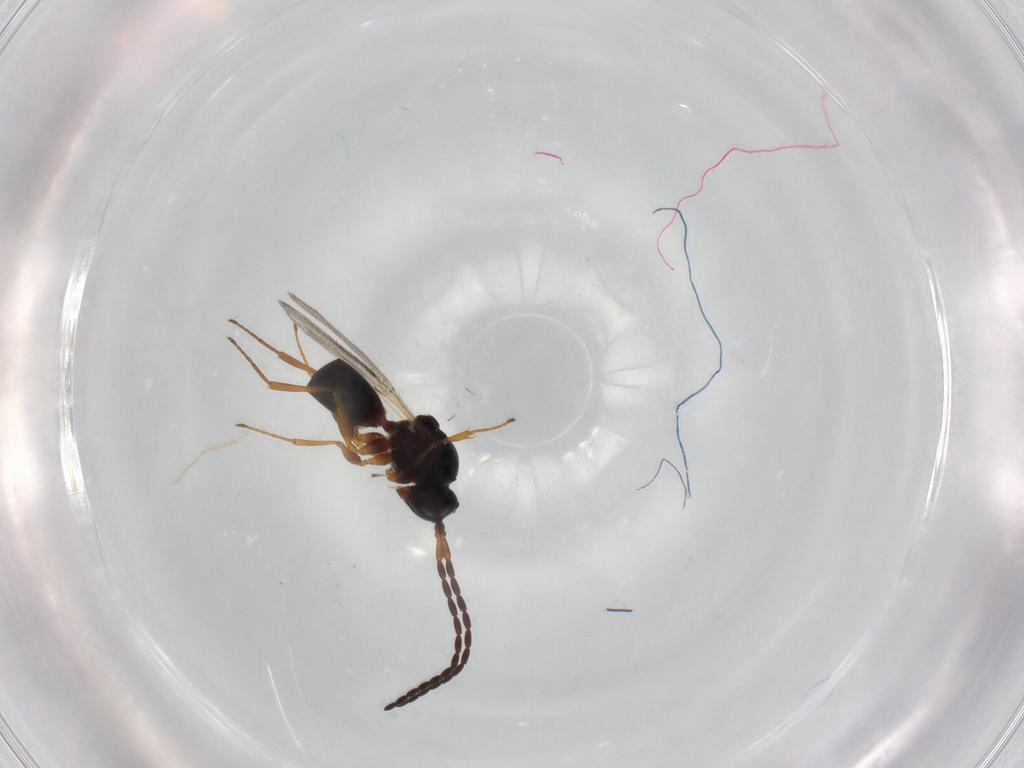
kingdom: Animalia
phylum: Arthropoda
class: Insecta
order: Hymenoptera
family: Figitidae
